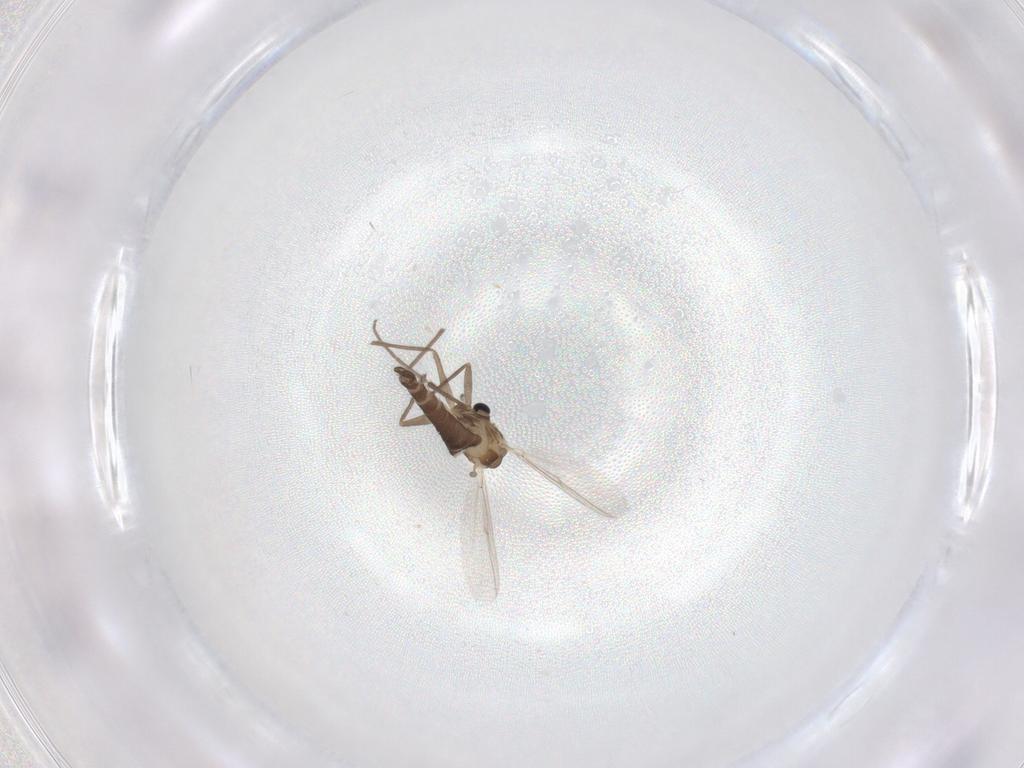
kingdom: Animalia
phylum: Arthropoda
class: Insecta
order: Diptera
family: Chironomidae
